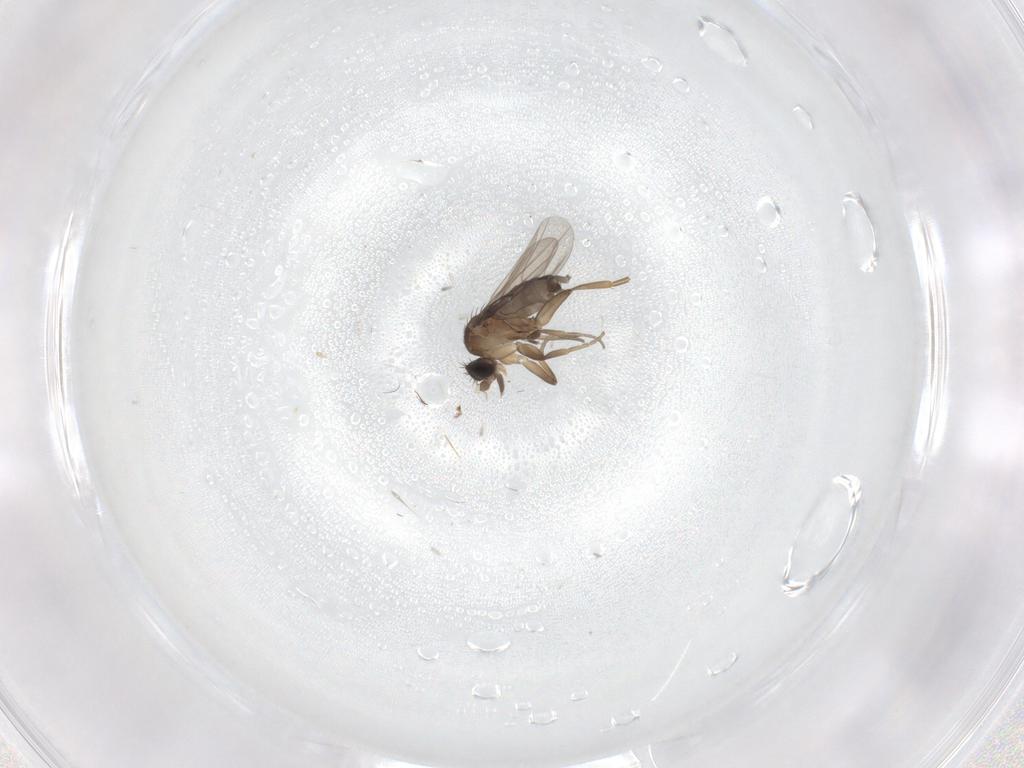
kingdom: Animalia
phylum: Arthropoda
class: Insecta
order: Diptera
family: Phoridae
